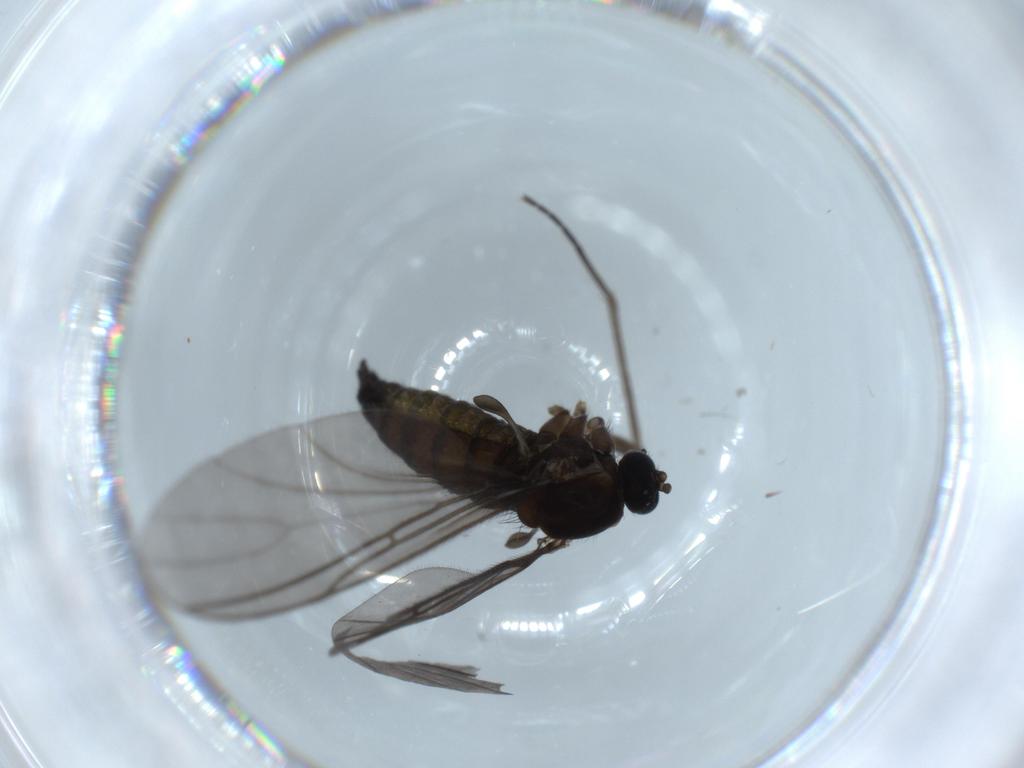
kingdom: Animalia
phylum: Arthropoda
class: Insecta
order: Diptera
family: Sciaridae
